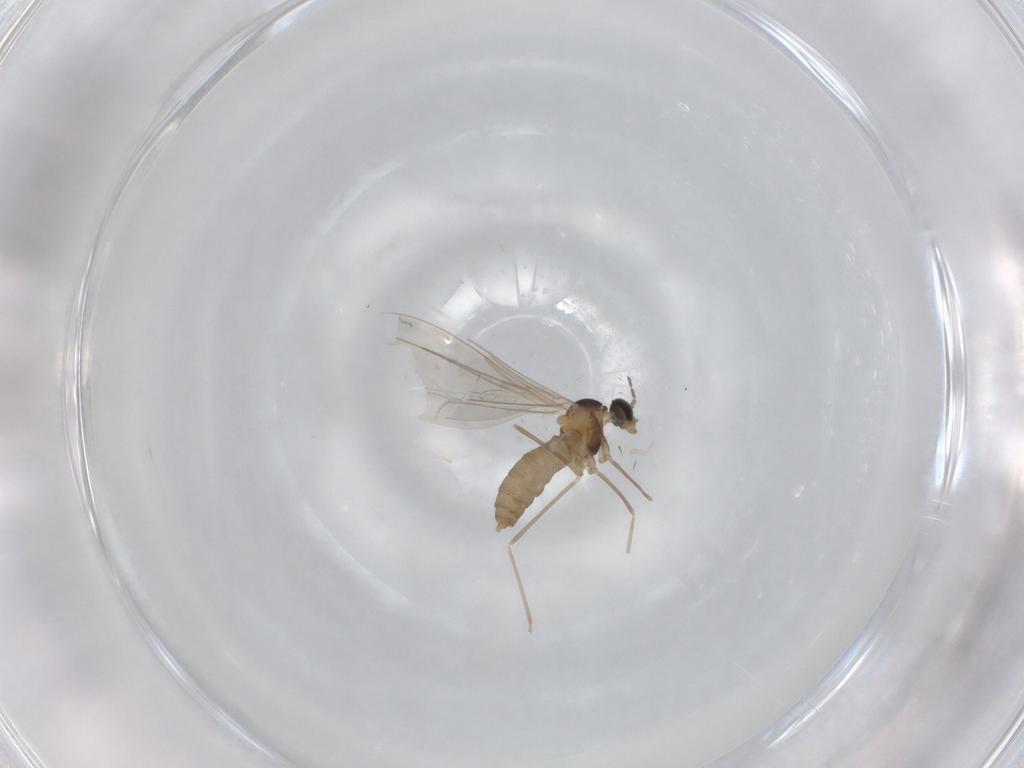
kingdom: Animalia
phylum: Arthropoda
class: Insecta
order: Diptera
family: Cecidomyiidae
